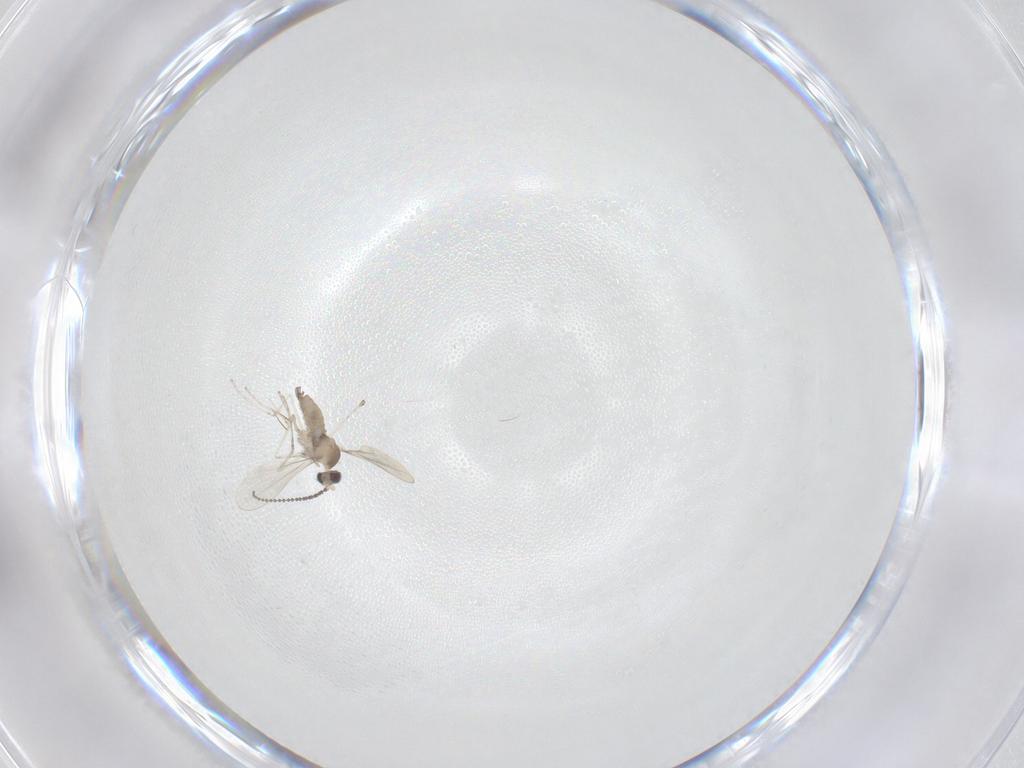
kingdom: Animalia
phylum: Arthropoda
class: Insecta
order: Diptera
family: Cecidomyiidae
